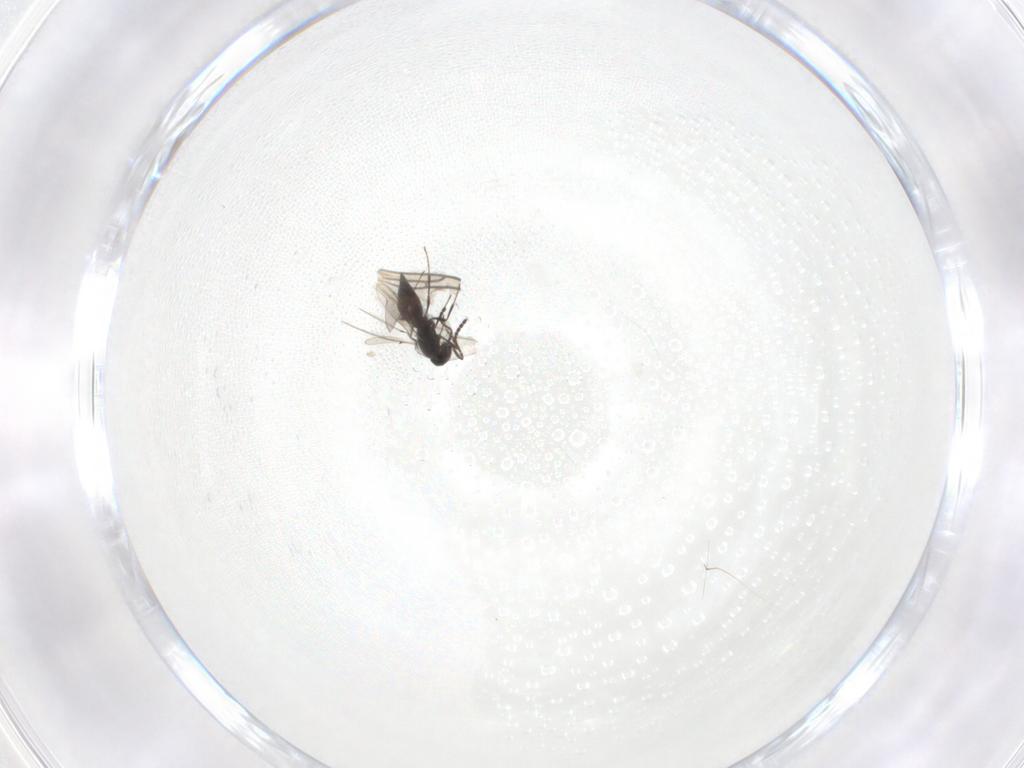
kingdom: Animalia
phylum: Arthropoda
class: Insecta
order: Hymenoptera
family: Scelionidae
